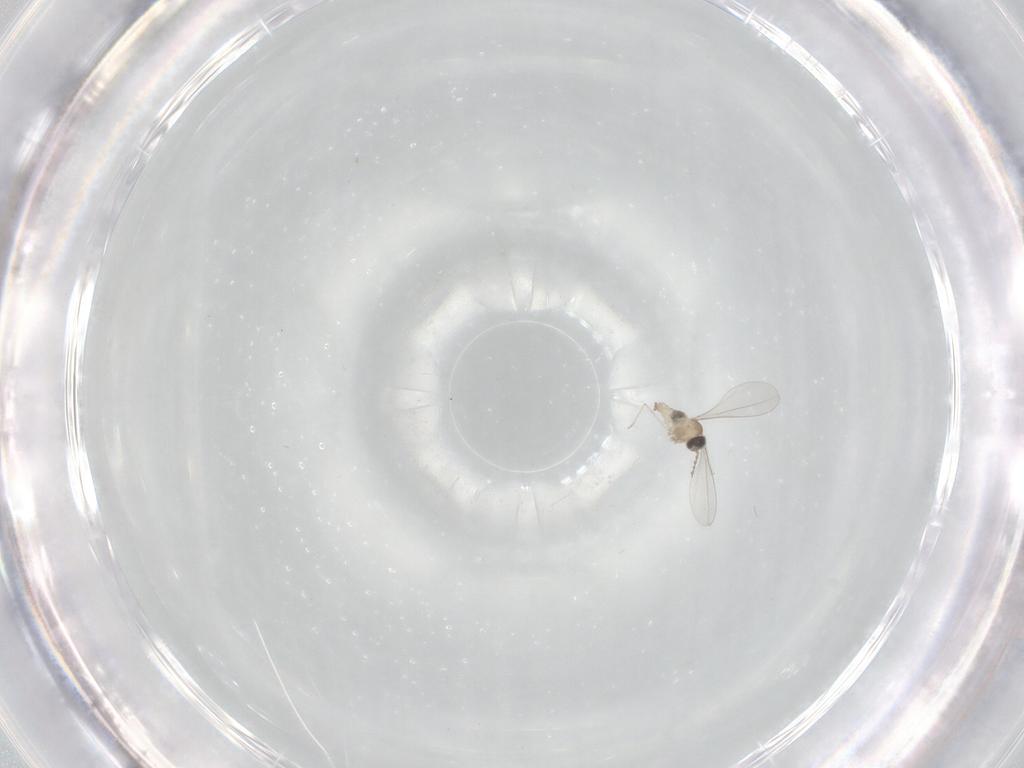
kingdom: Animalia
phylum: Arthropoda
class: Insecta
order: Diptera
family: Cecidomyiidae
